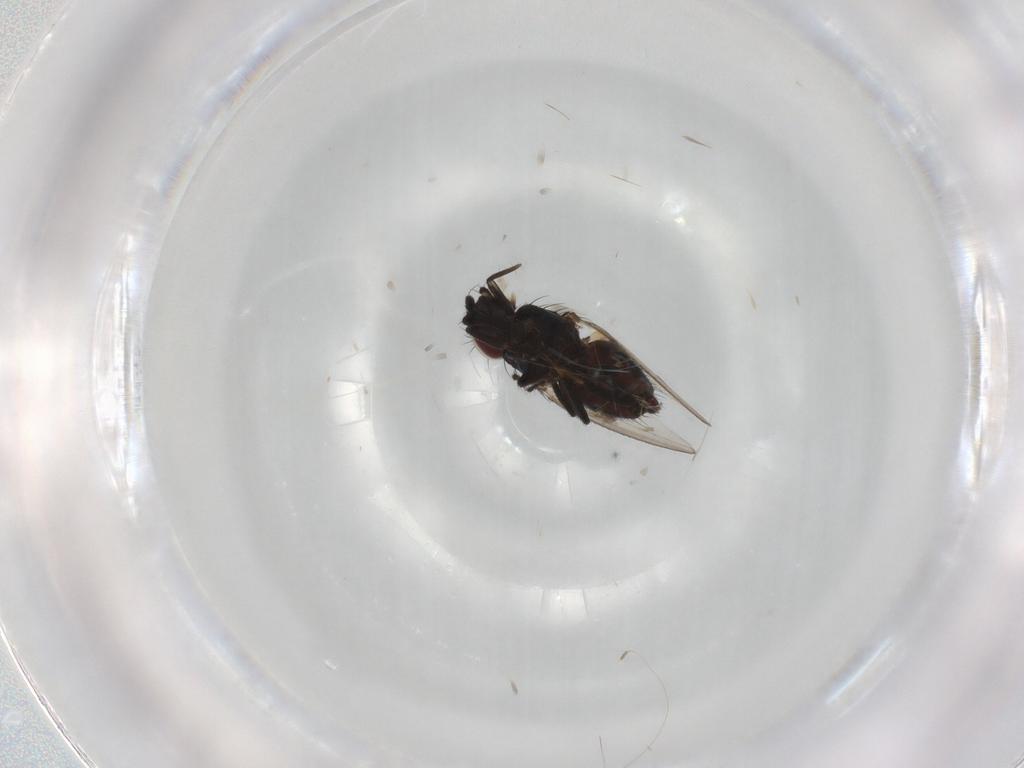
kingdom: Animalia
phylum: Arthropoda
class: Insecta
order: Diptera
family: Milichiidae
